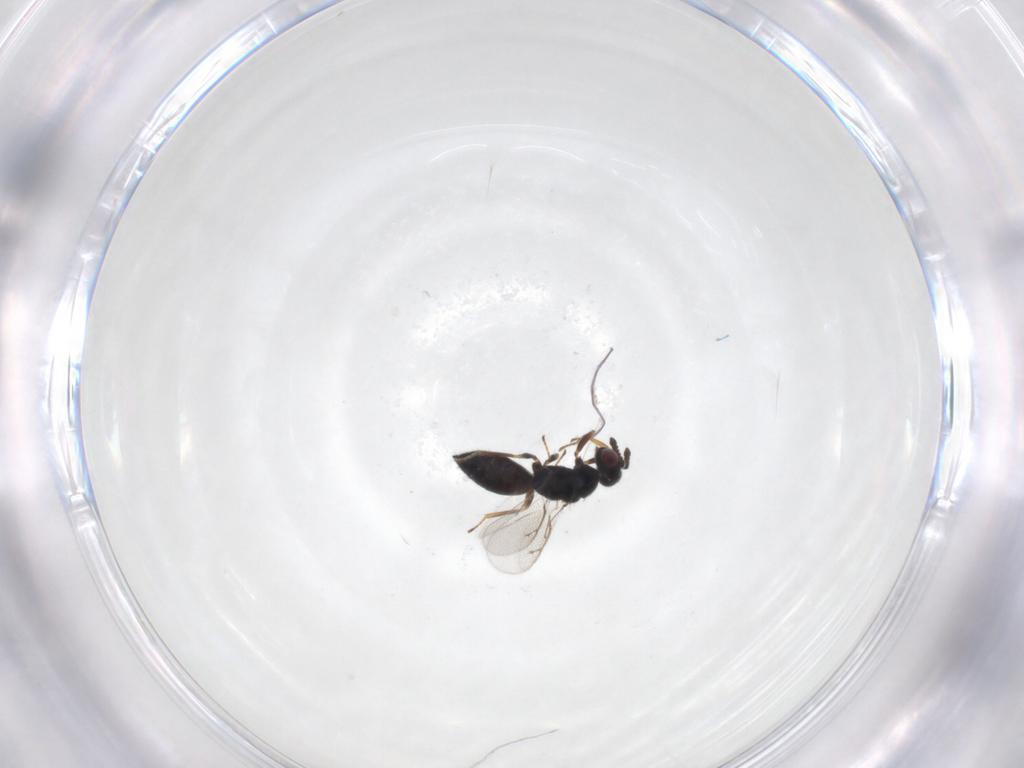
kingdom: Animalia
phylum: Arthropoda
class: Insecta
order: Hymenoptera
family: Eulophidae
